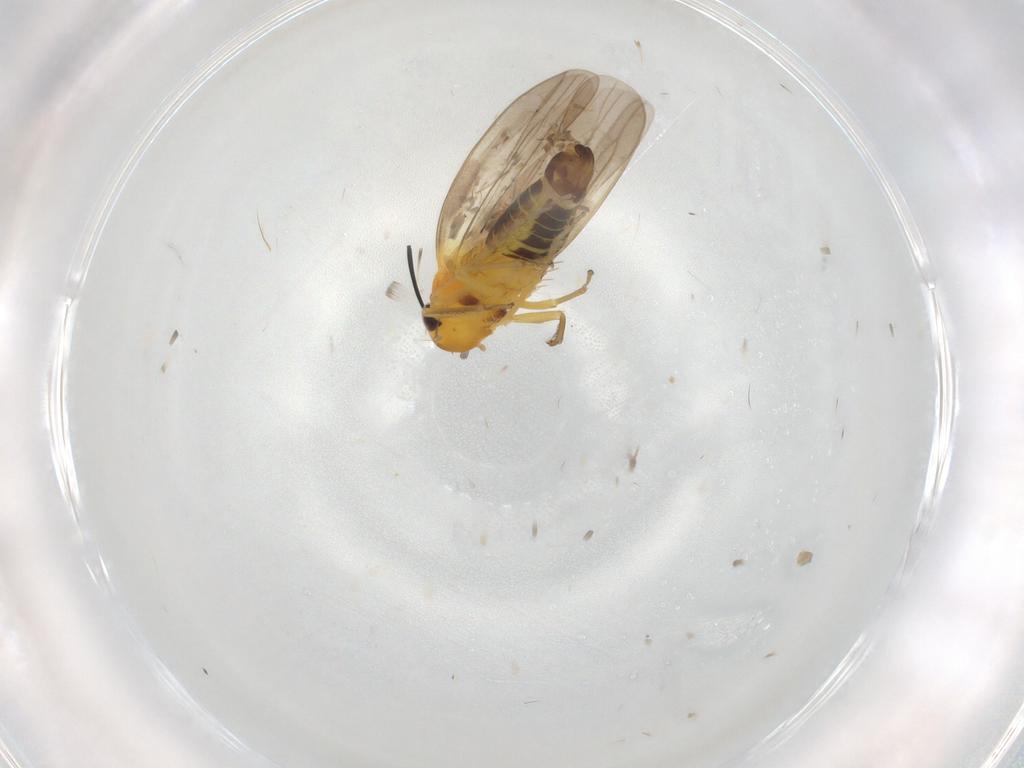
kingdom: Animalia
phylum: Arthropoda
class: Insecta
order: Hemiptera
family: Cicadellidae
